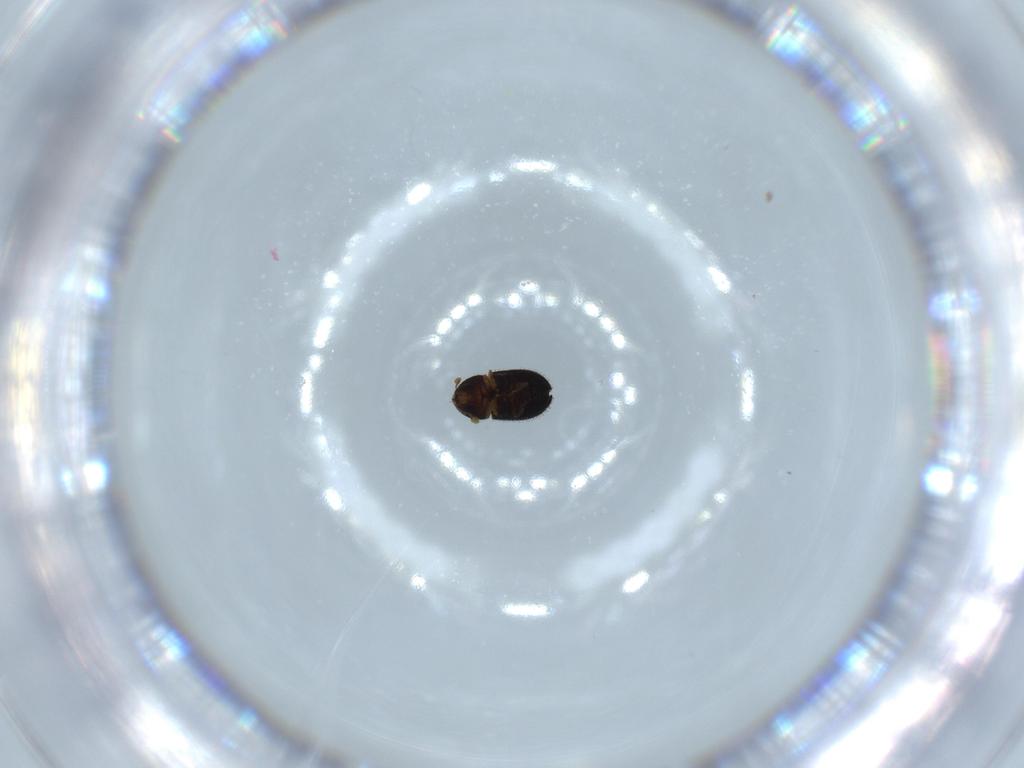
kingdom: Animalia
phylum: Arthropoda
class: Insecta
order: Coleoptera
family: Curculionidae
